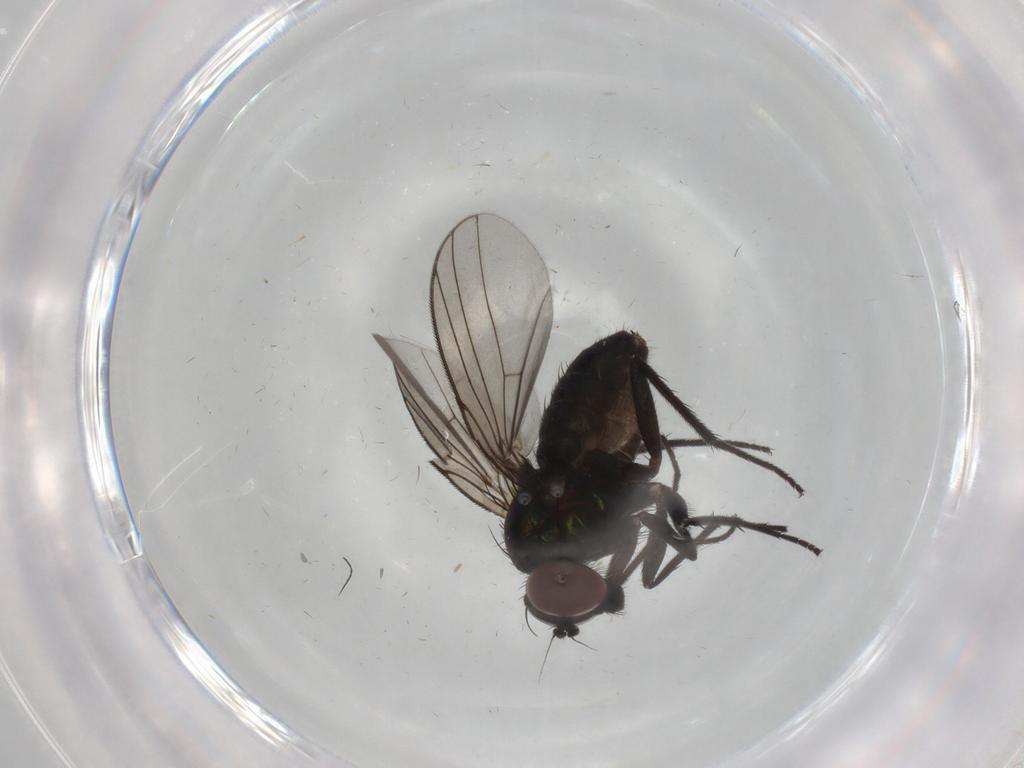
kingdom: Animalia
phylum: Arthropoda
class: Insecta
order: Diptera
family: Dolichopodidae
